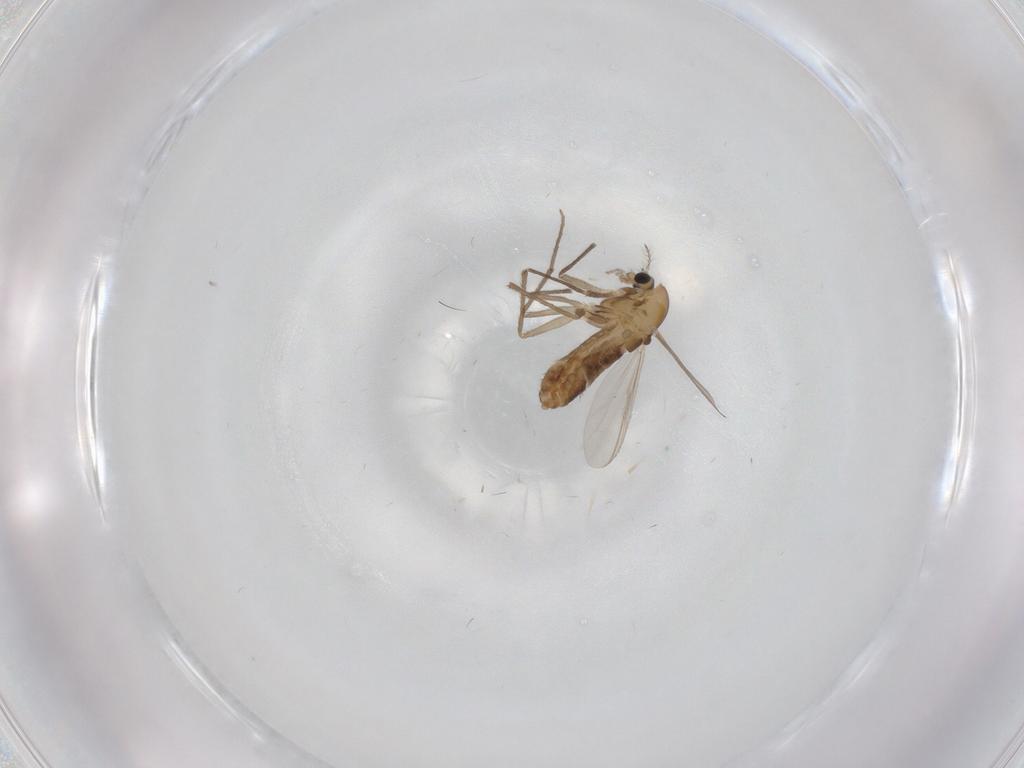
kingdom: Animalia
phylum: Arthropoda
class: Insecta
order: Diptera
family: Chironomidae
